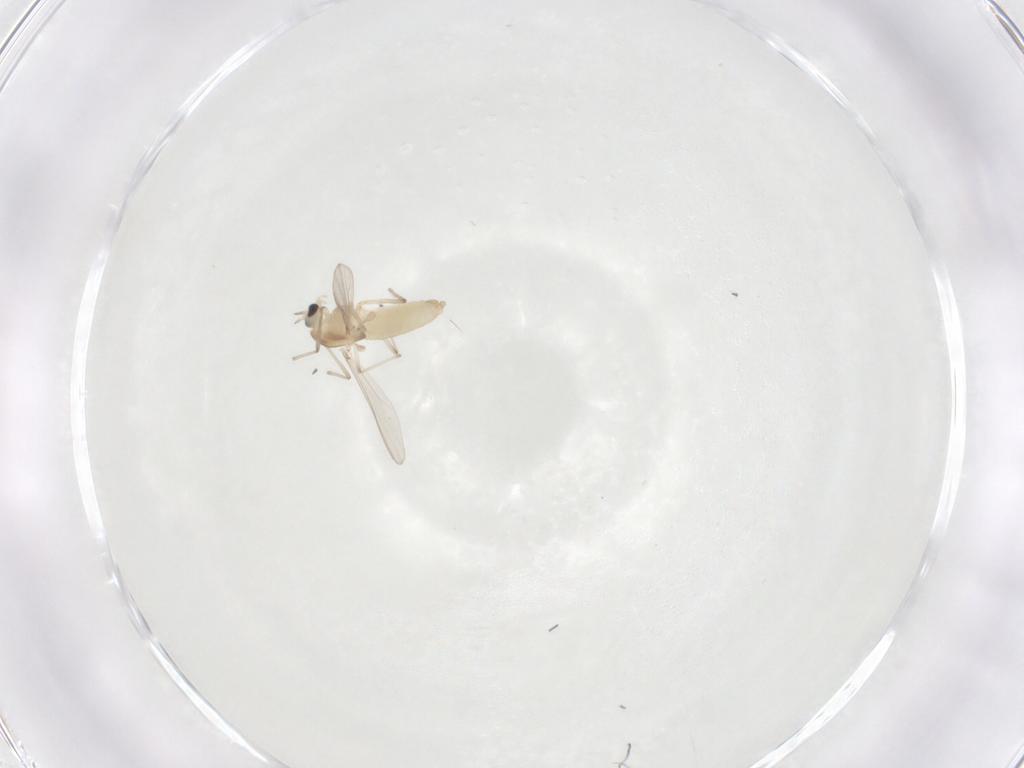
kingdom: Animalia
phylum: Arthropoda
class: Insecta
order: Diptera
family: Chironomidae
